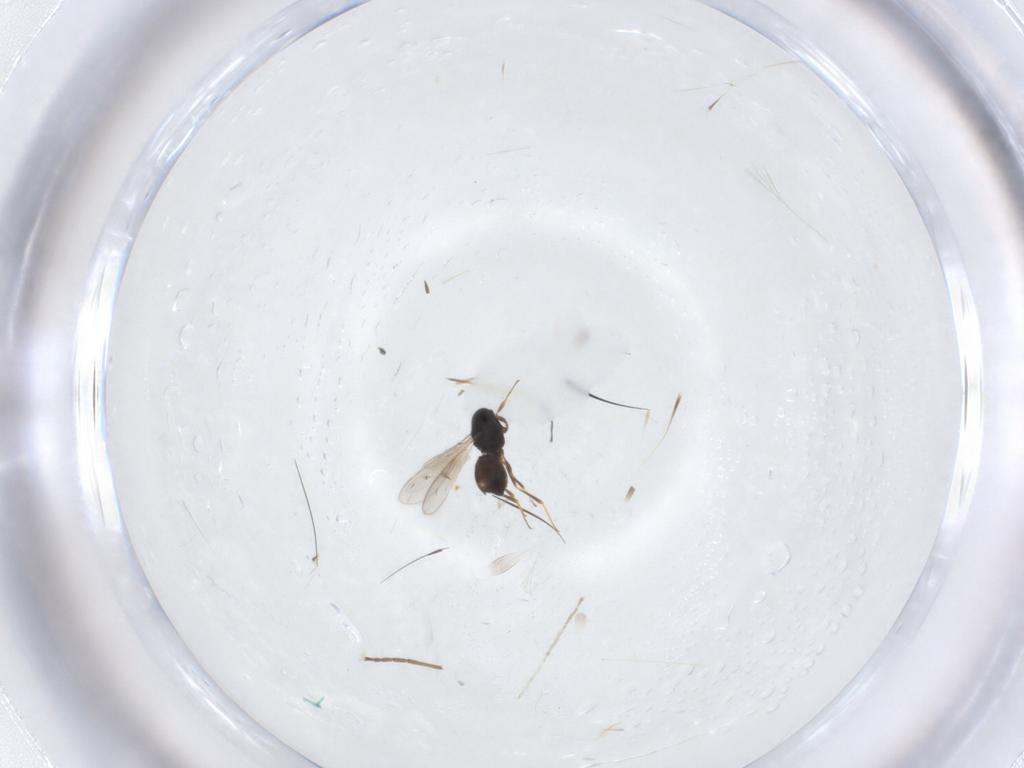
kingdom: Animalia
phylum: Arthropoda
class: Insecta
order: Hymenoptera
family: Scelionidae
